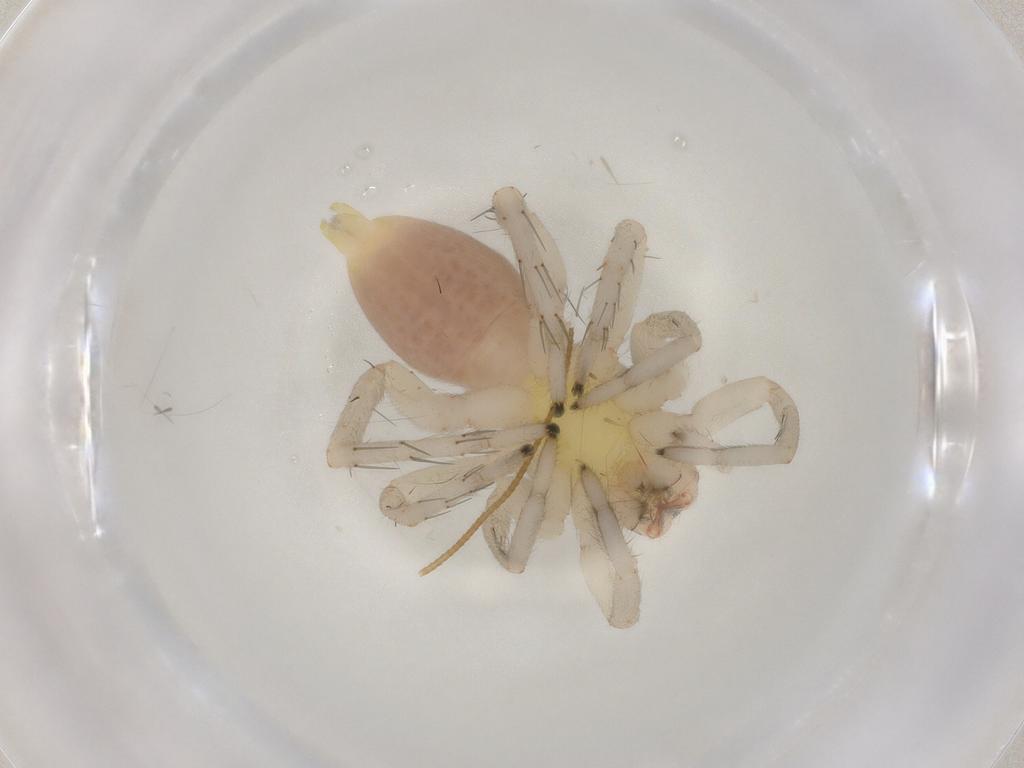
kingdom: Animalia
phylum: Arthropoda
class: Arachnida
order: Araneae
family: Clubionidae
